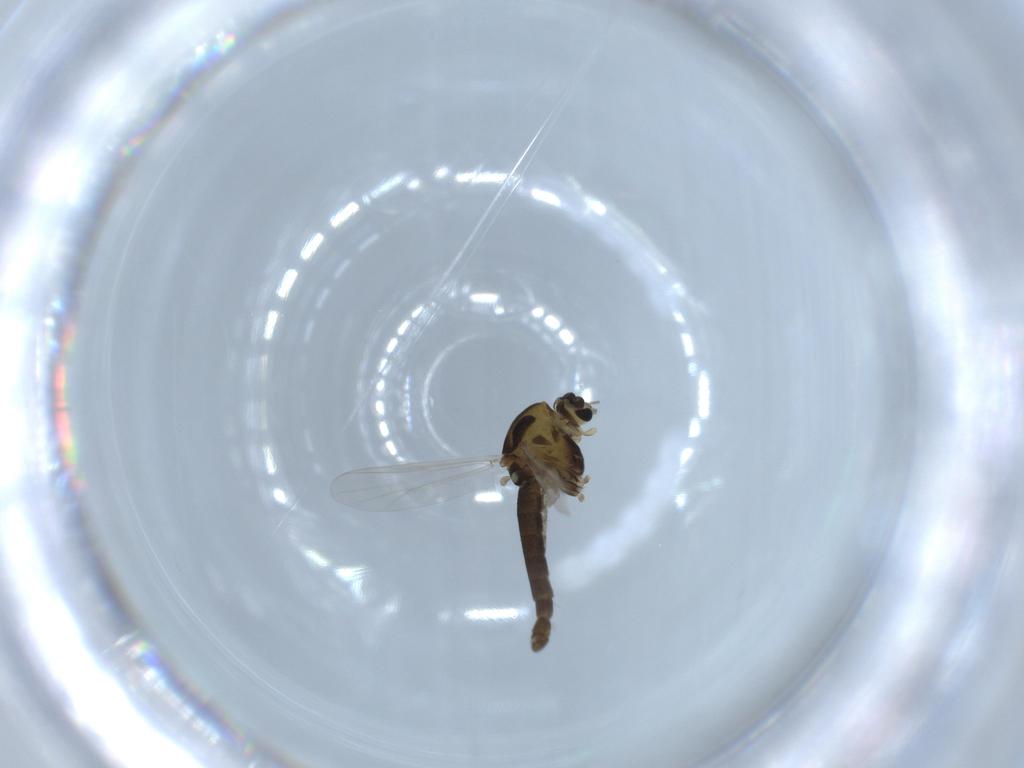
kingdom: Animalia
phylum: Arthropoda
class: Insecta
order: Diptera
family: Chironomidae
